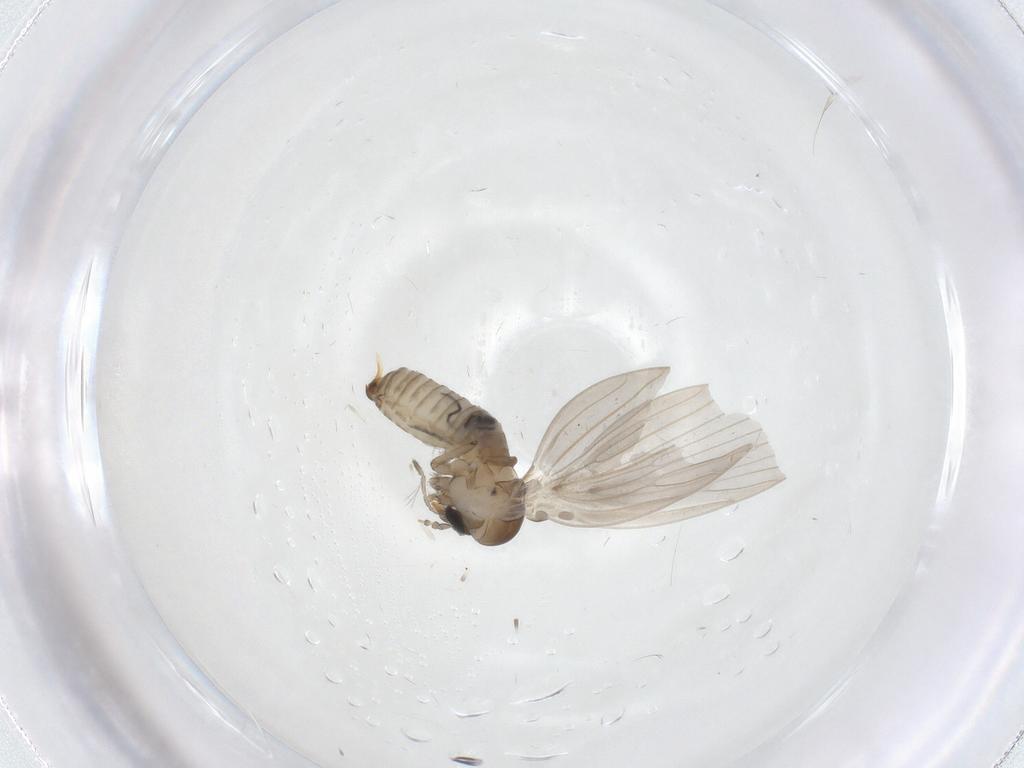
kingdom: Animalia
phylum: Arthropoda
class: Insecta
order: Diptera
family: Psychodidae
